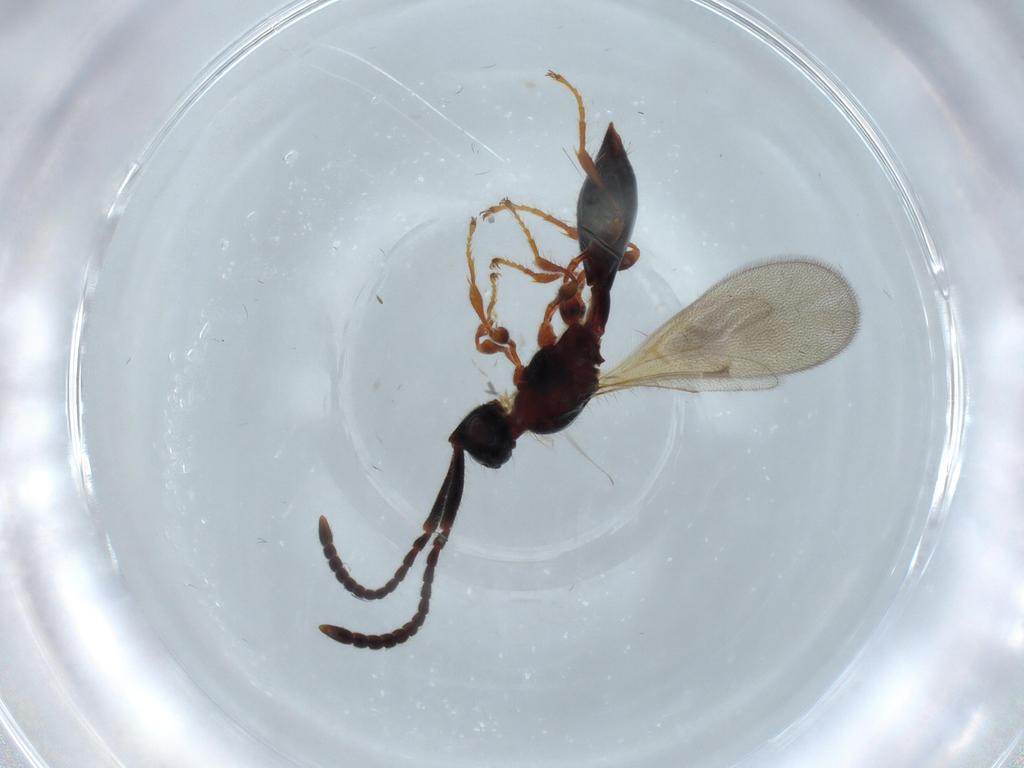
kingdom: Animalia
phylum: Arthropoda
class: Insecta
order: Hymenoptera
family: Diapriidae
